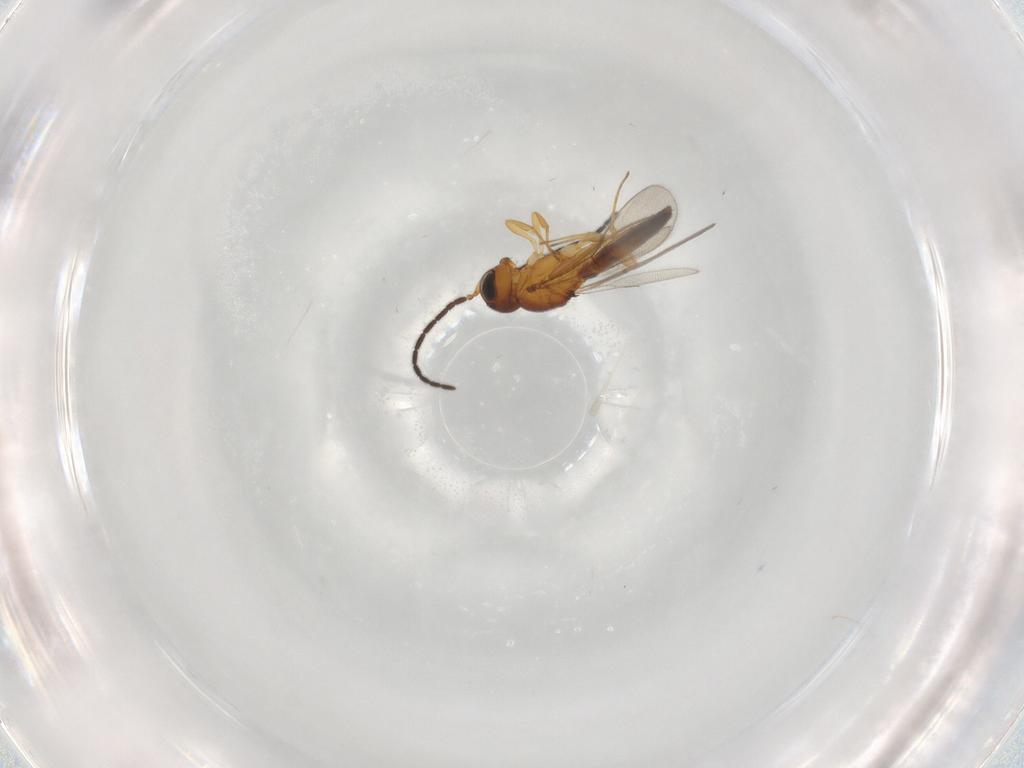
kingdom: Animalia
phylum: Arthropoda
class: Insecta
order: Hymenoptera
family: Scelionidae
